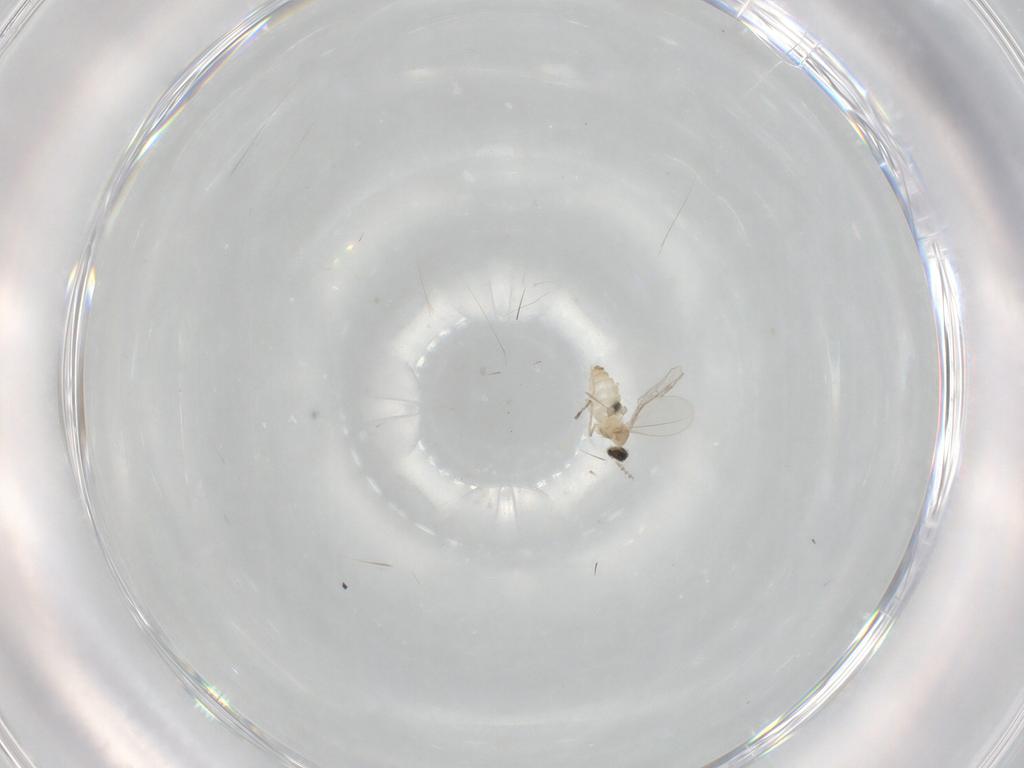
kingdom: Animalia
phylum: Arthropoda
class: Insecta
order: Diptera
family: Cecidomyiidae
